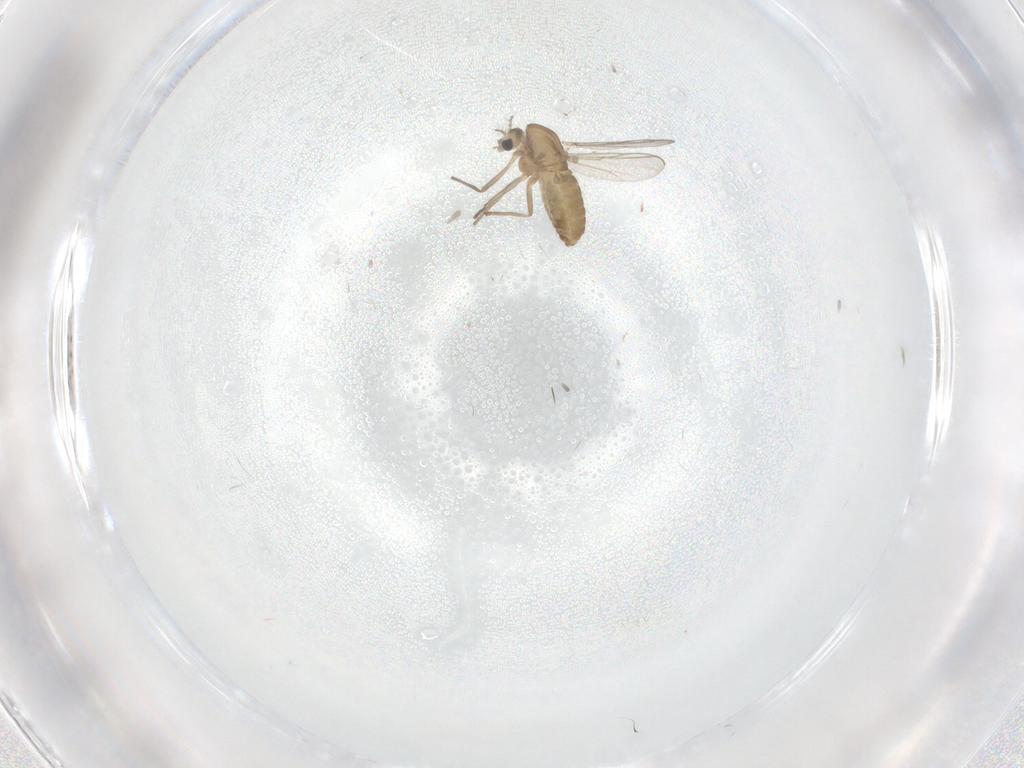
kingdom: Animalia
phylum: Arthropoda
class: Insecta
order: Diptera
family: Chironomidae
